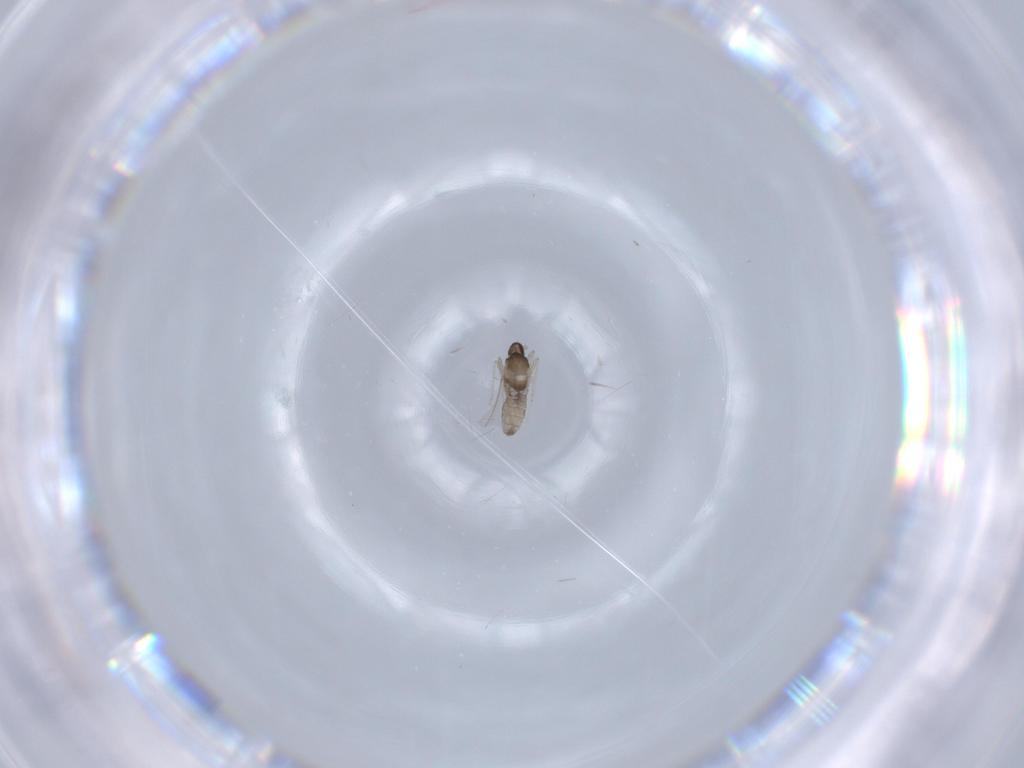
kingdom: Animalia
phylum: Arthropoda
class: Insecta
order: Diptera
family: Cecidomyiidae
